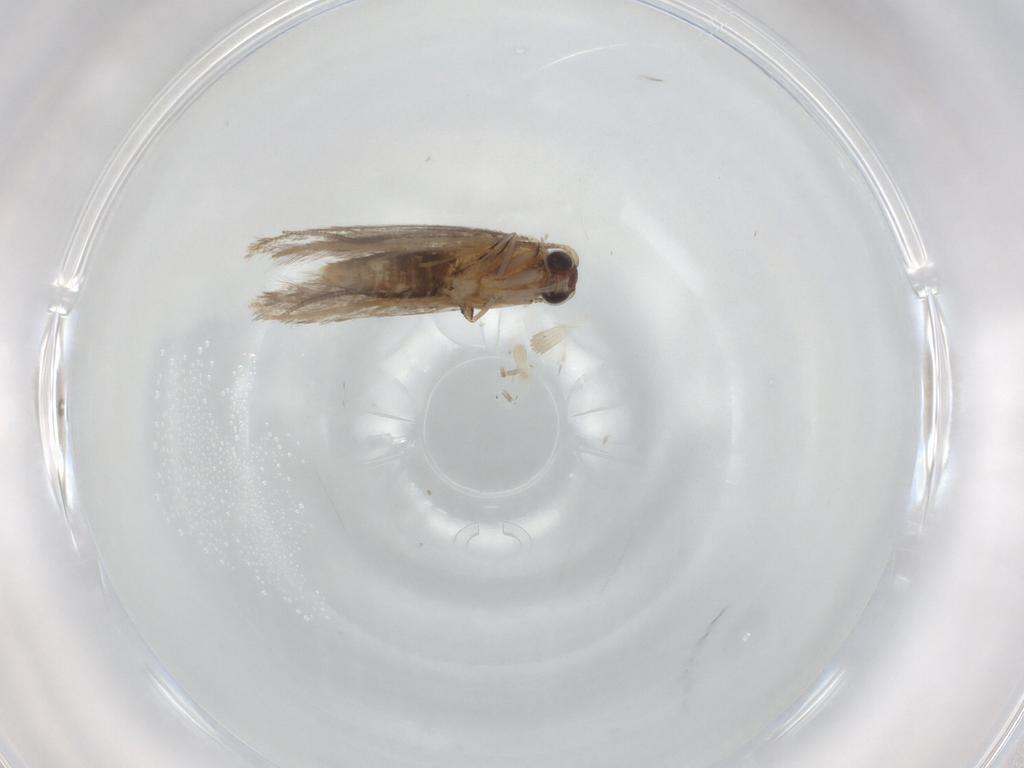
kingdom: Animalia
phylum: Arthropoda
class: Insecta
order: Lepidoptera
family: Tineidae
